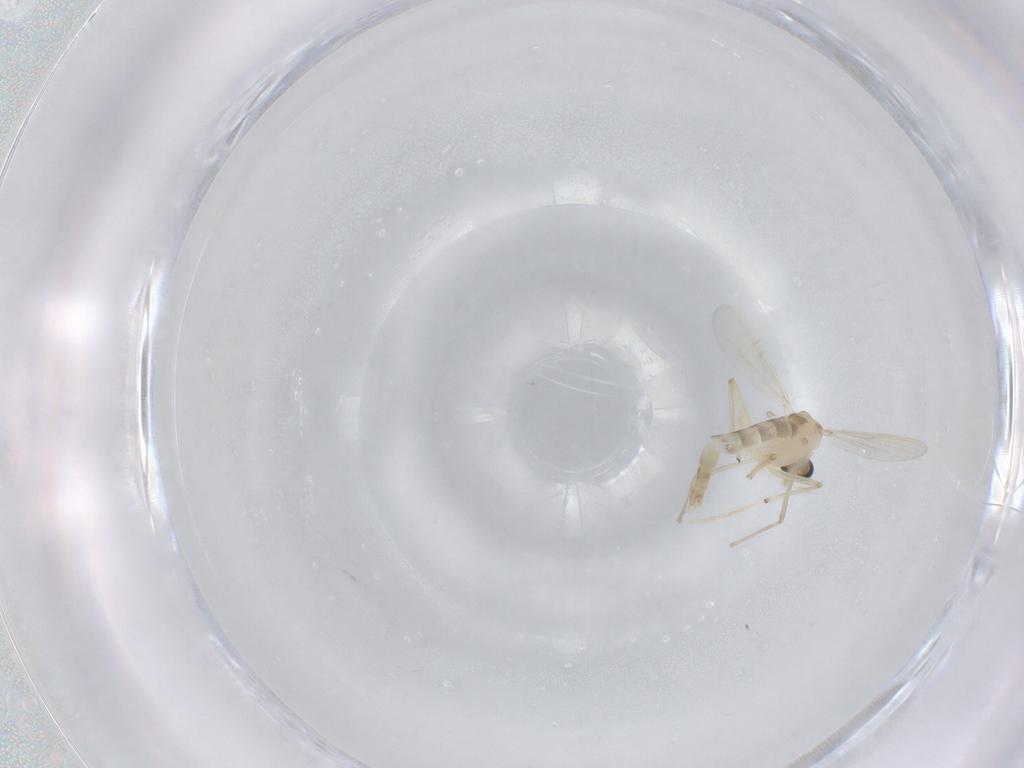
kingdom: Animalia
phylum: Arthropoda
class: Insecta
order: Diptera
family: Chironomidae
